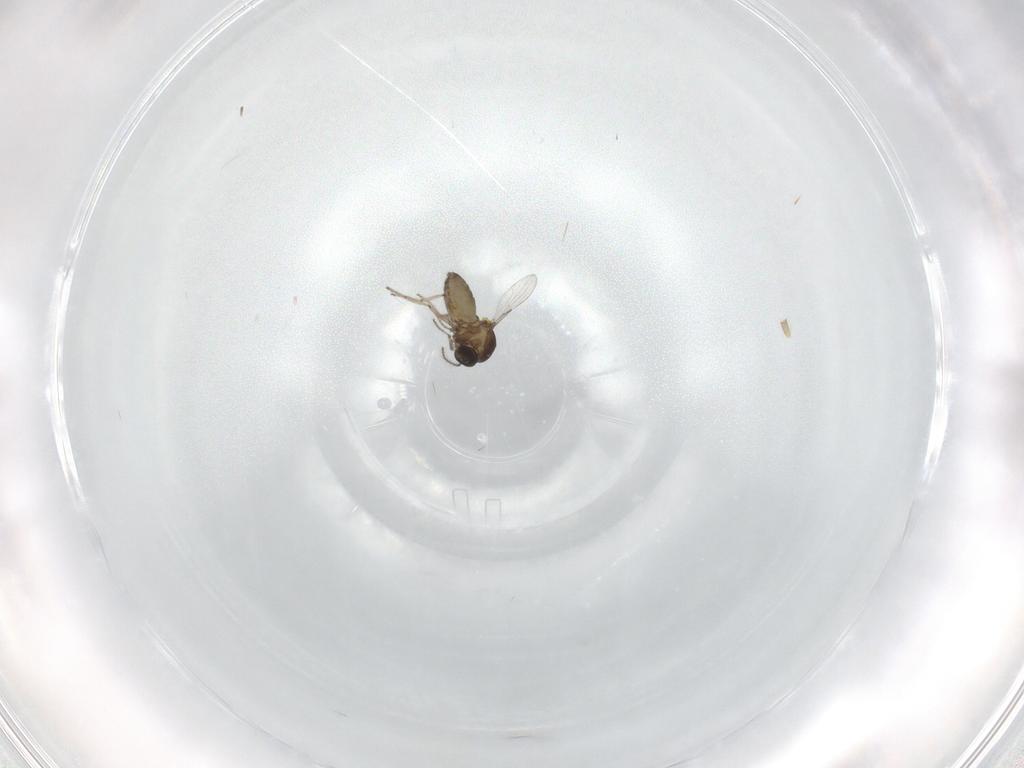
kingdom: Animalia
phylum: Arthropoda
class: Insecta
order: Diptera
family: Ceratopogonidae
